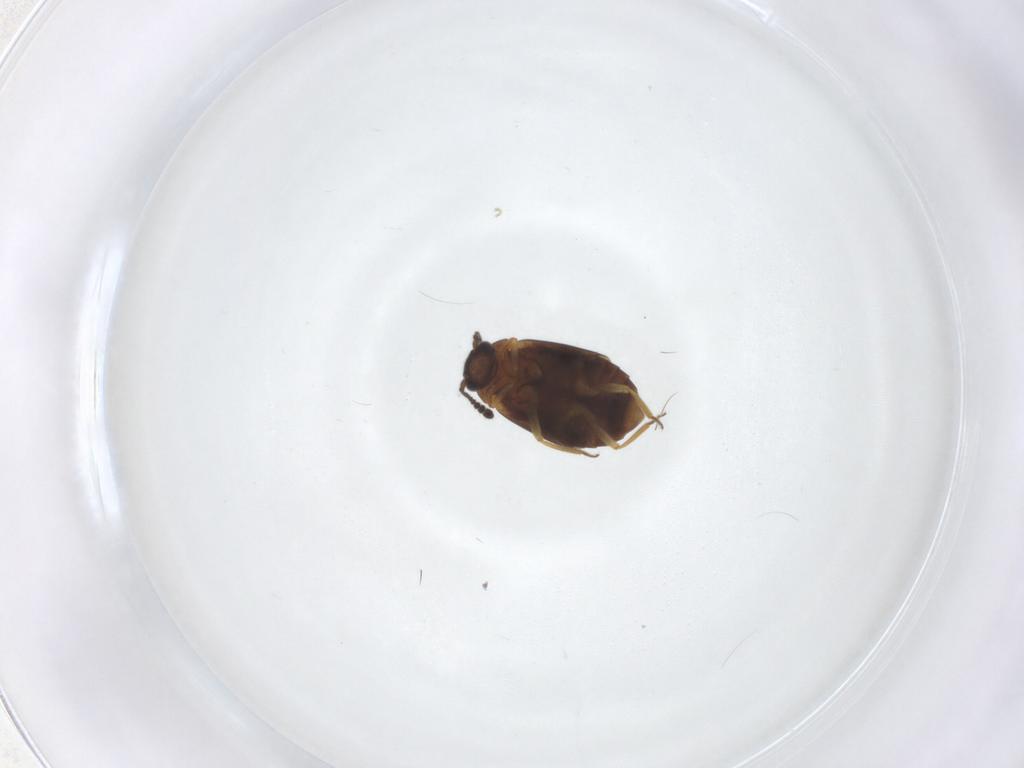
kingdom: Animalia
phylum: Arthropoda
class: Insecta
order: Coleoptera
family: Staphylinidae
